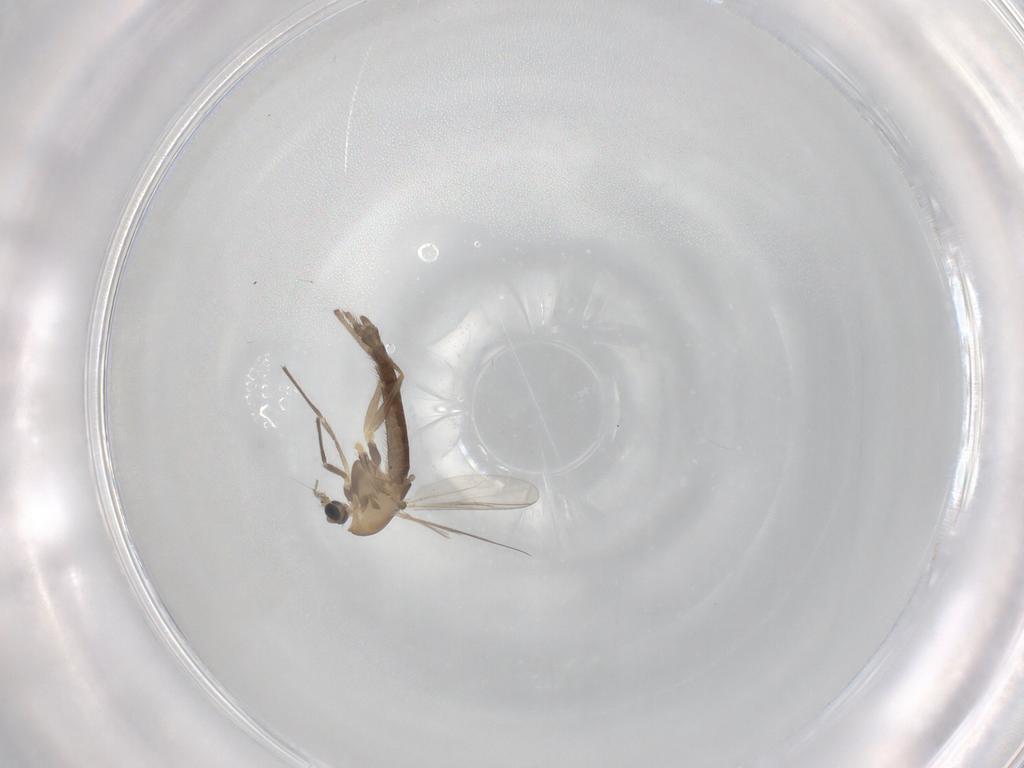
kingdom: Animalia
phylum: Arthropoda
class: Insecta
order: Diptera
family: Chironomidae
